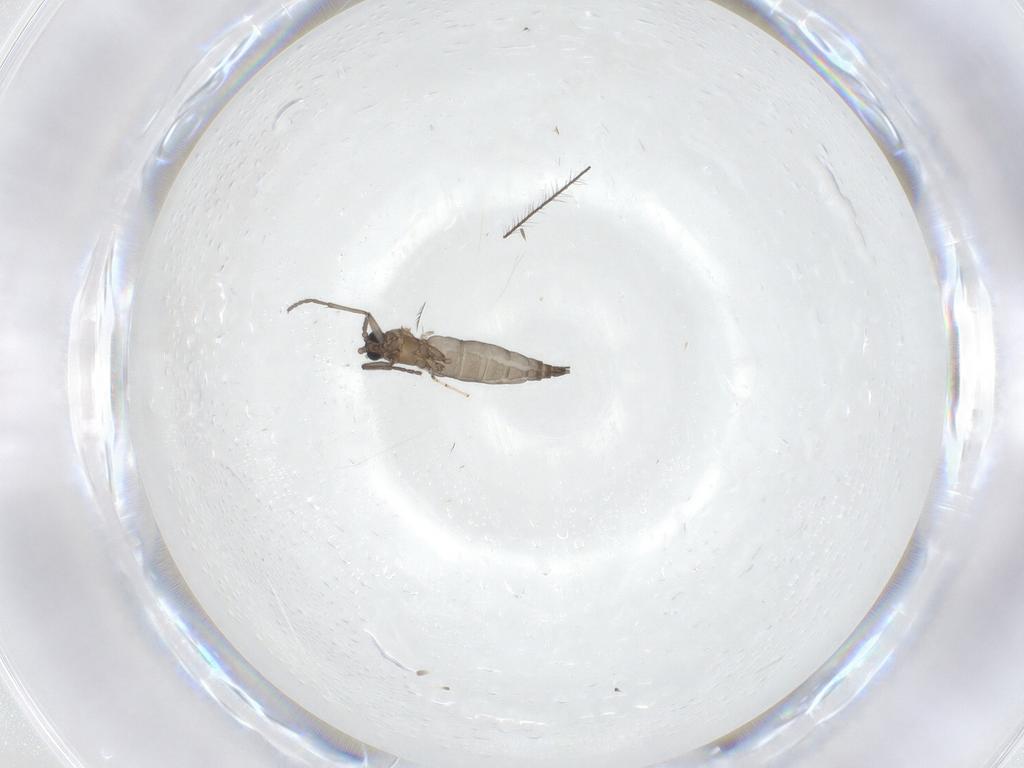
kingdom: Animalia
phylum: Arthropoda
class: Insecta
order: Diptera
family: Sciaridae
